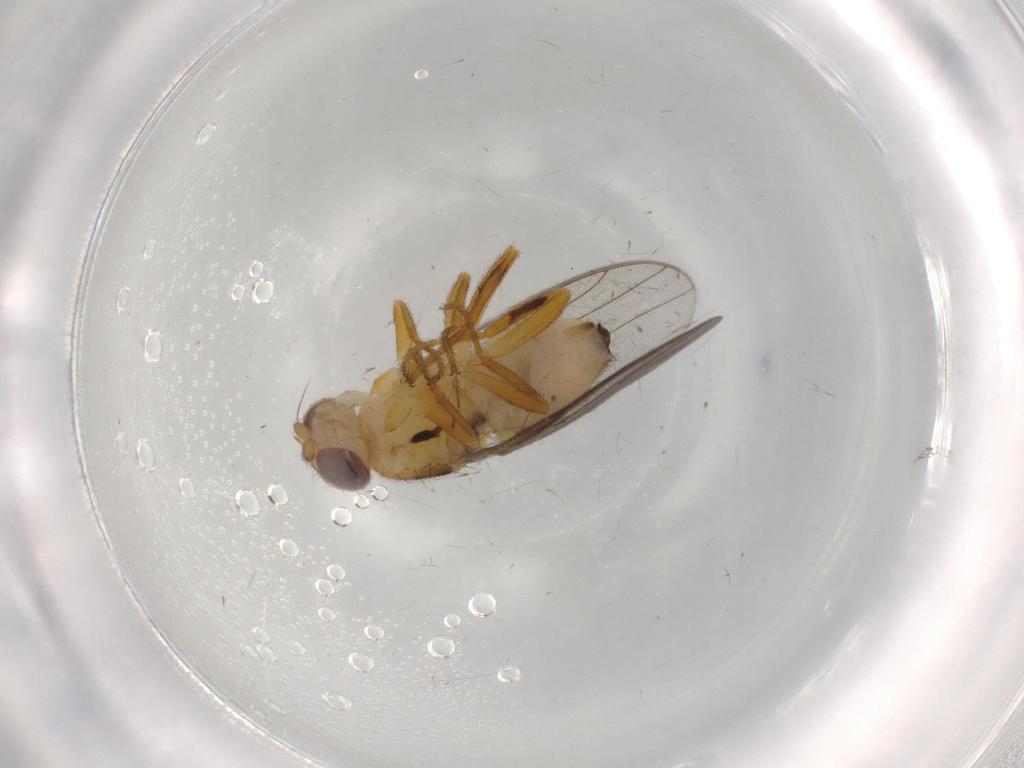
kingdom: Animalia
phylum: Arthropoda
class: Insecta
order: Diptera
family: Chloropidae
